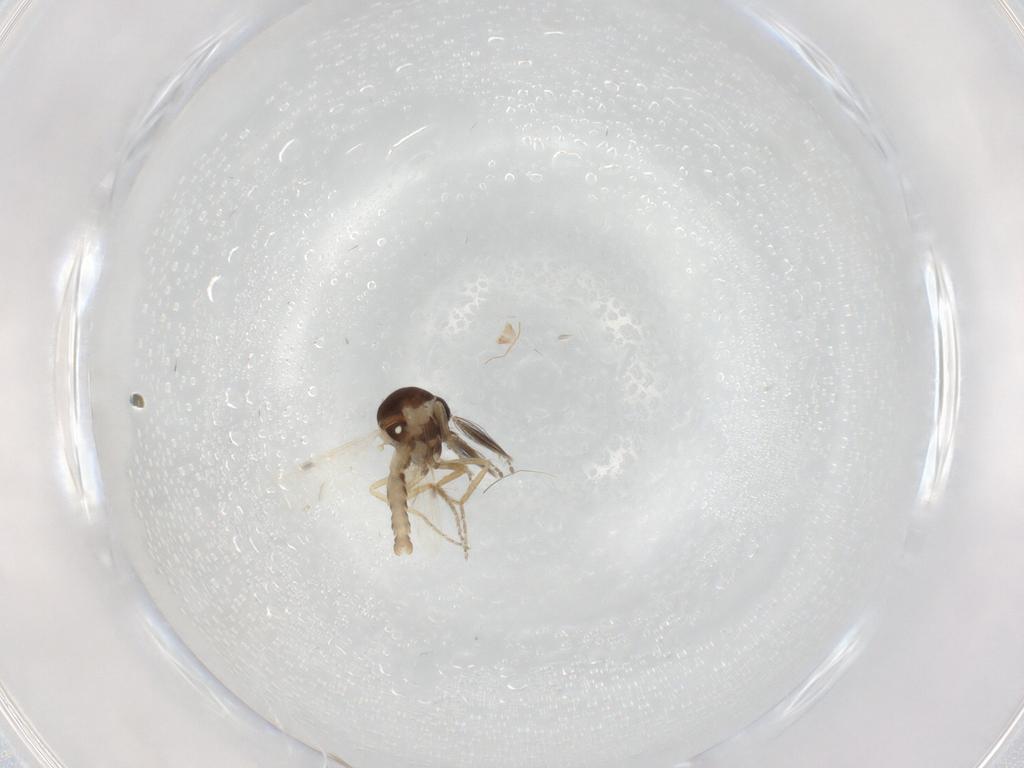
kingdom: Animalia
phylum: Arthropoda
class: Insecta
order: Diptera
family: Ceratopogonidae
